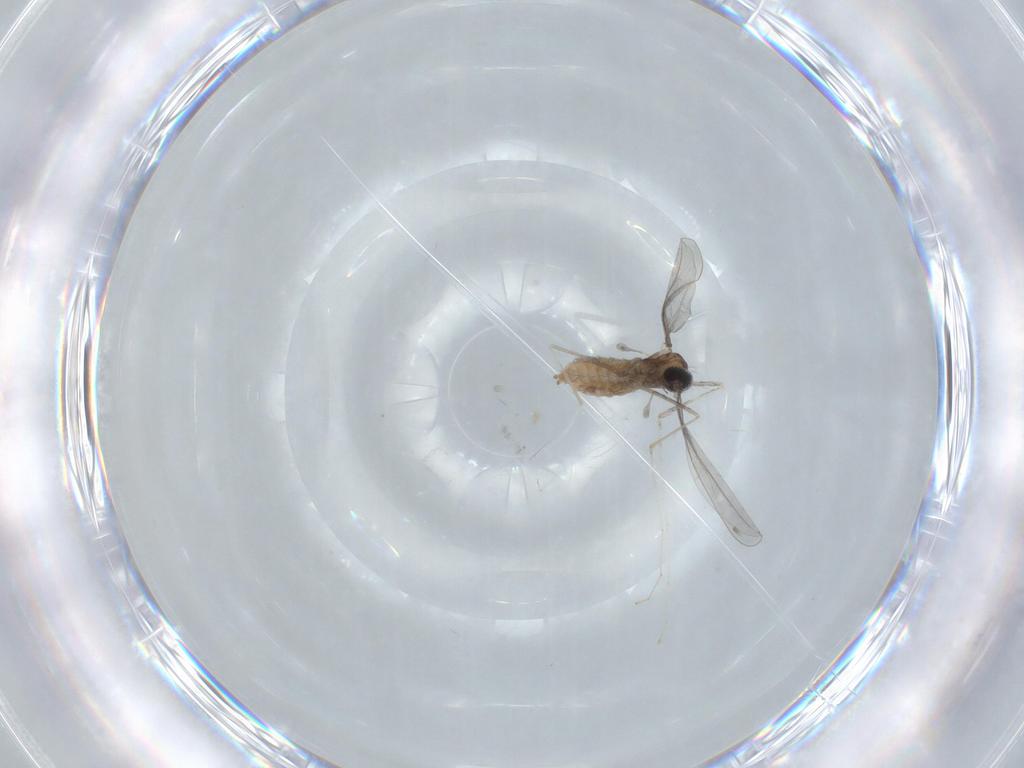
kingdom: Animalia
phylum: Arthropoda
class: Insecta
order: Diptera
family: Cecidomyiidae
